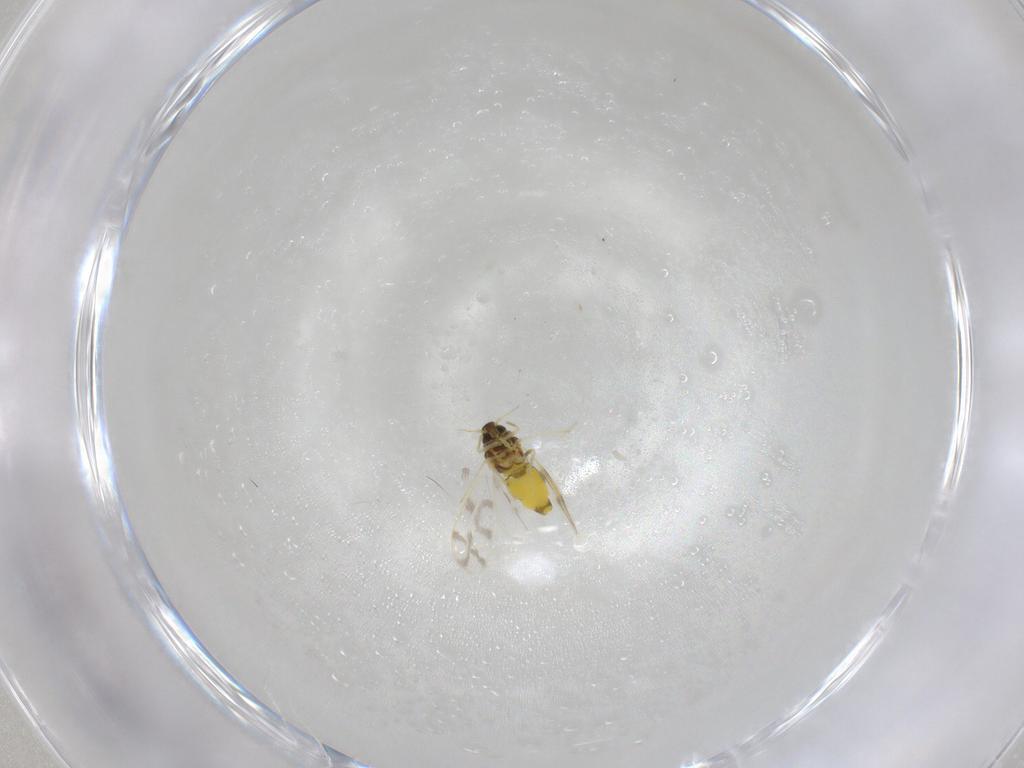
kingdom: Animalia
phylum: Arthropoda
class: Insecta
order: Hemiptera
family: Aleyrodidae
